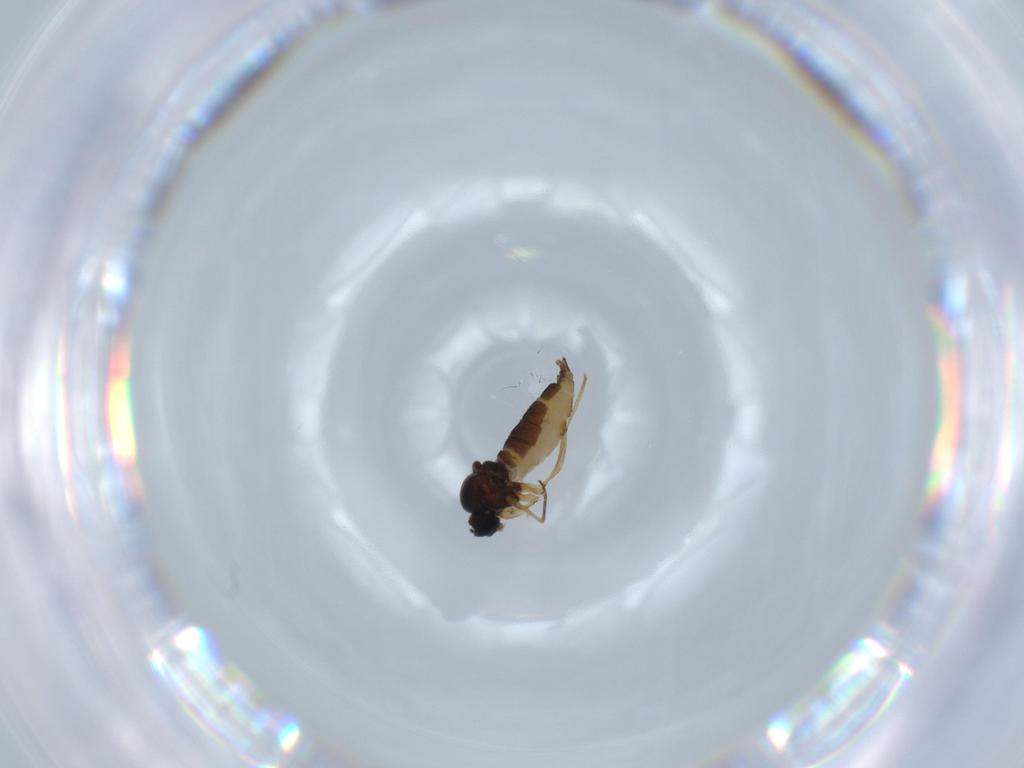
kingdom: Animalia
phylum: Arthropoda
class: Insecta
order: Diptera
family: Sciaridae
